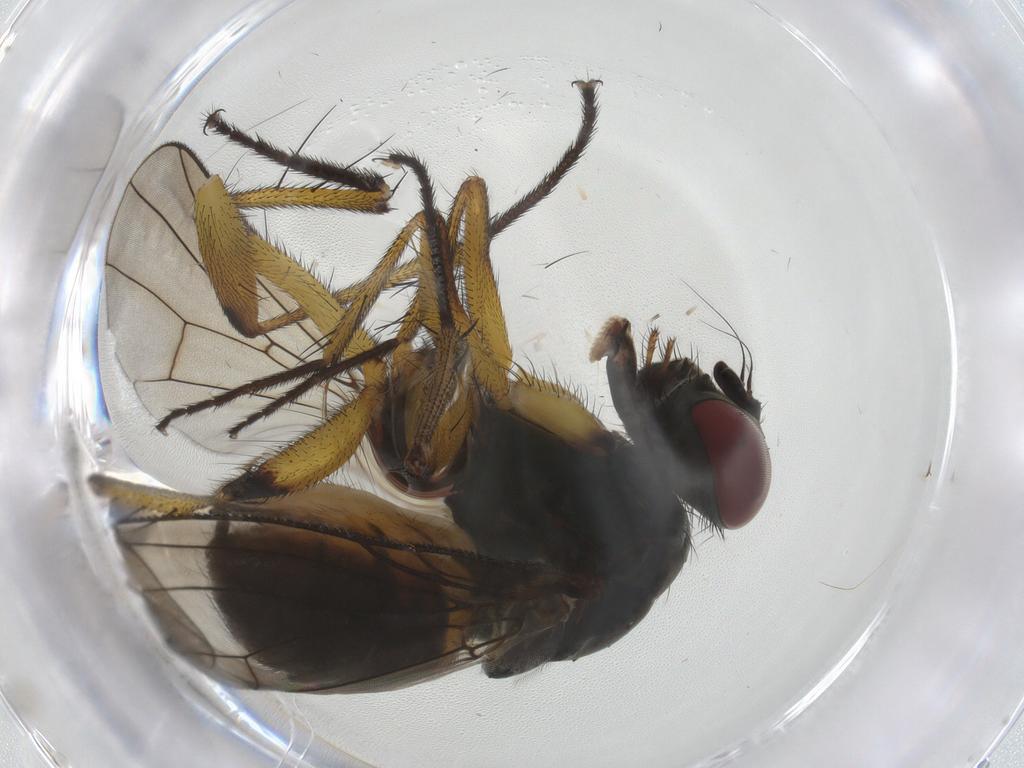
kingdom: Animalia
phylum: Arthropoda
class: Insecta
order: Diptera
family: Muscidae
